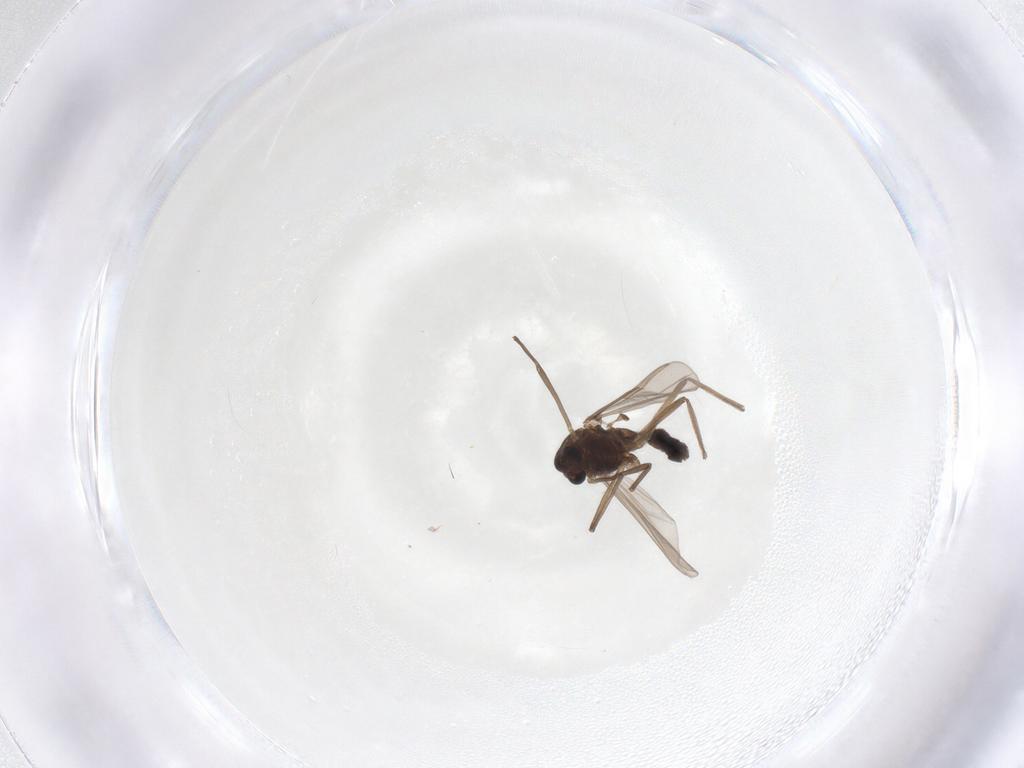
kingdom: Animalia
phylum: Arthropoda
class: Insecta
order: Diptera
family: Chironomidae
